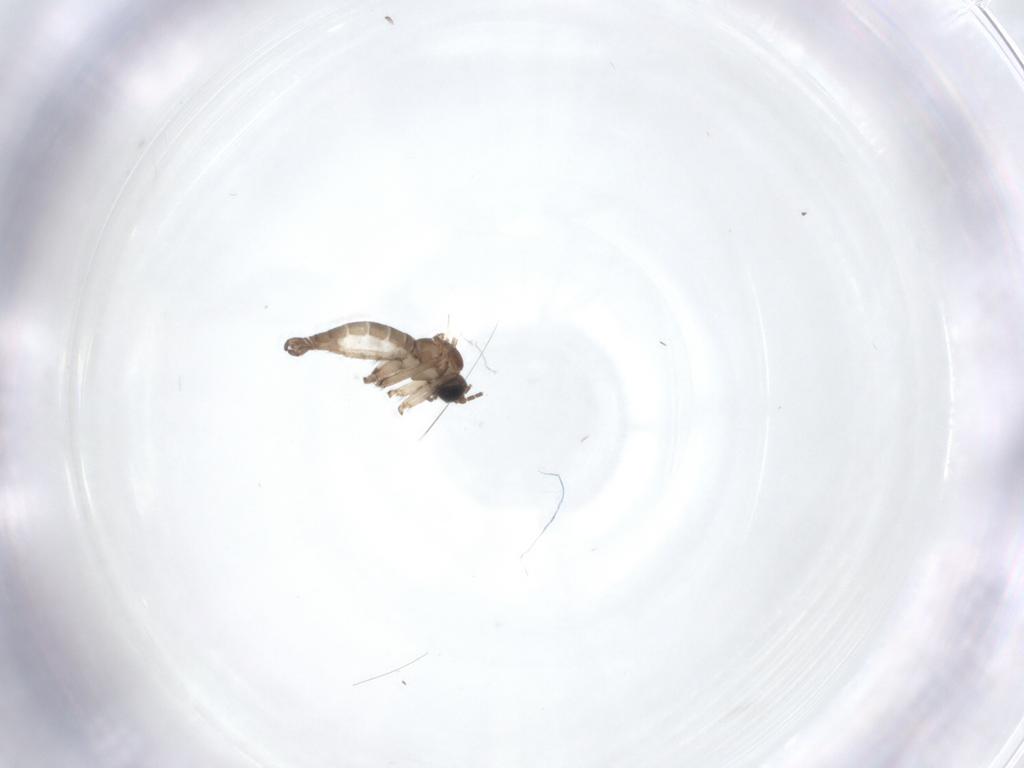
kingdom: Animalia
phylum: Arthropoda
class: Insecta
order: Diptera
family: Sciaridae
